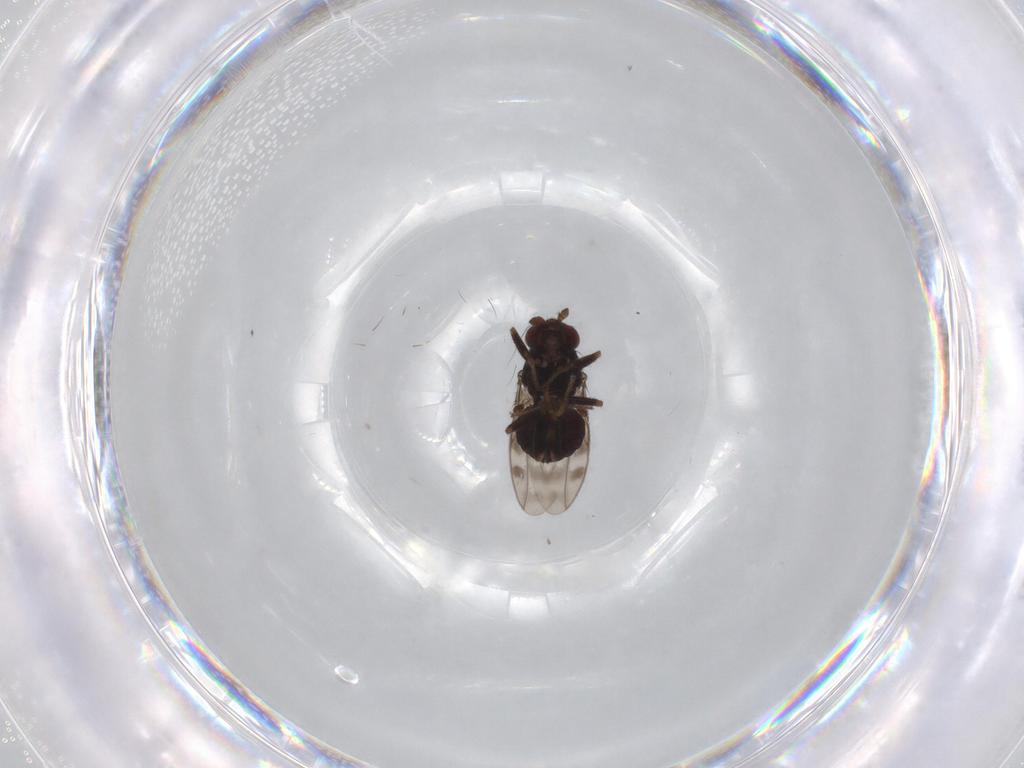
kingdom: Animalia
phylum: Arthropoda
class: Insecta
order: Diptera
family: Sphaeroceridae
